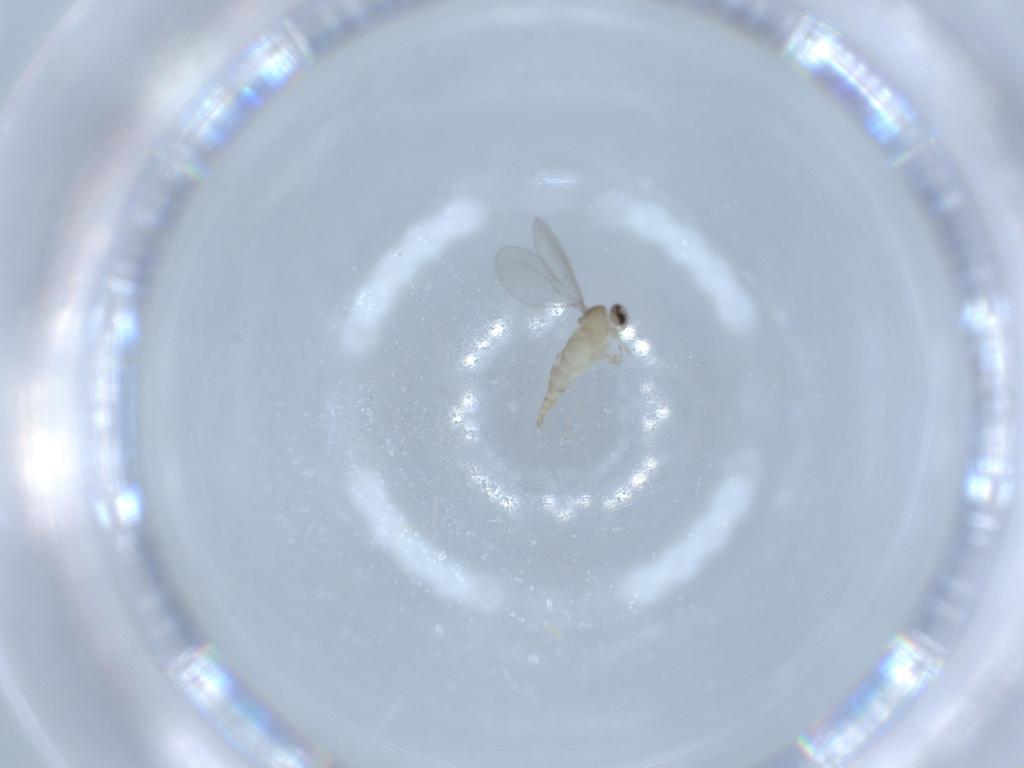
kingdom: Animalia
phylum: Arthropoda
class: Insecta
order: Diptera
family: Cecidomyiidae
